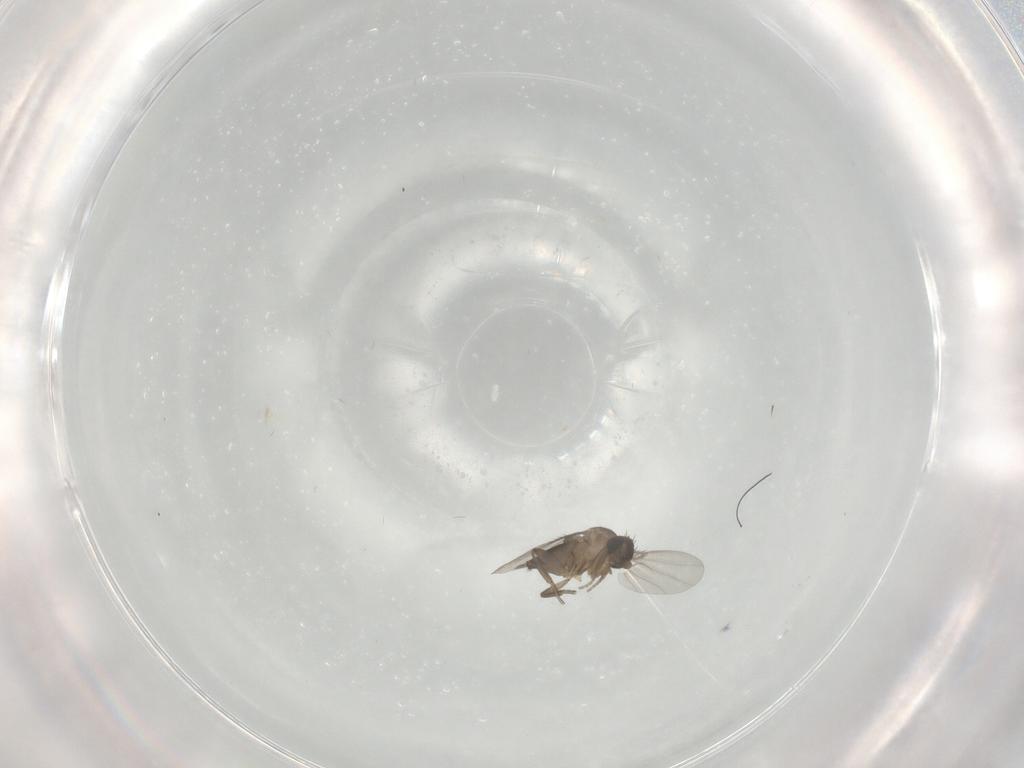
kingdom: Animalia
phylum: Arthropoda
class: Insecta
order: Diptera
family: Phoridae
